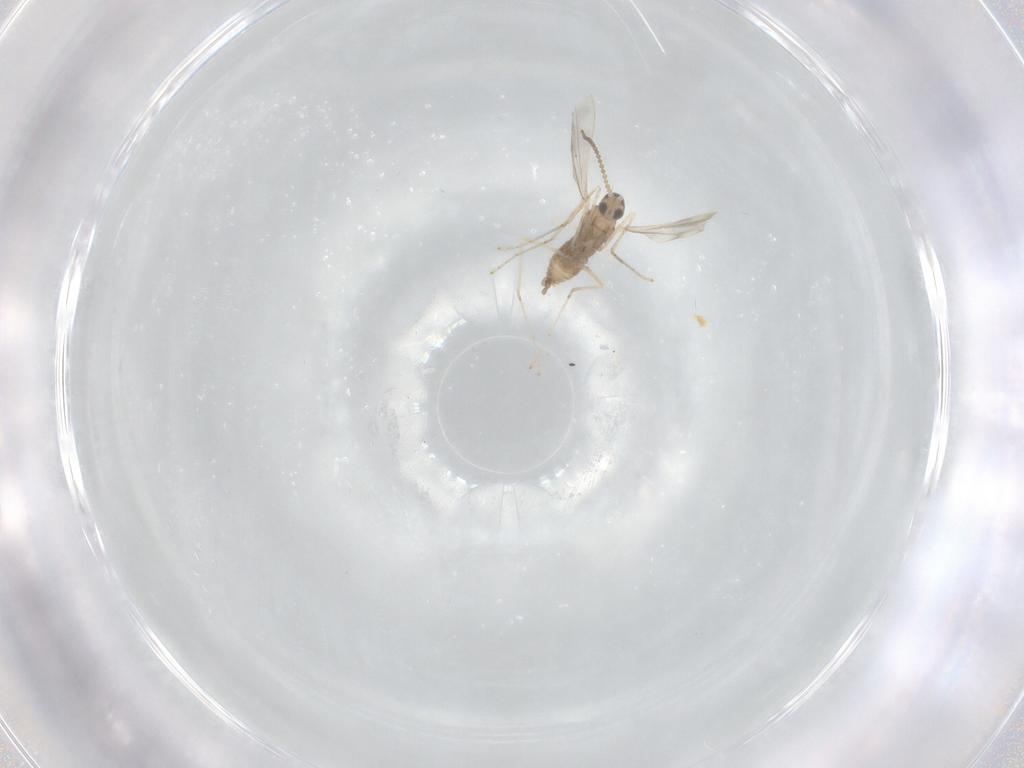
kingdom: Animalia
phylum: Arthropoda
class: Insecta
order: Diptera
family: Cecidomyiidae
